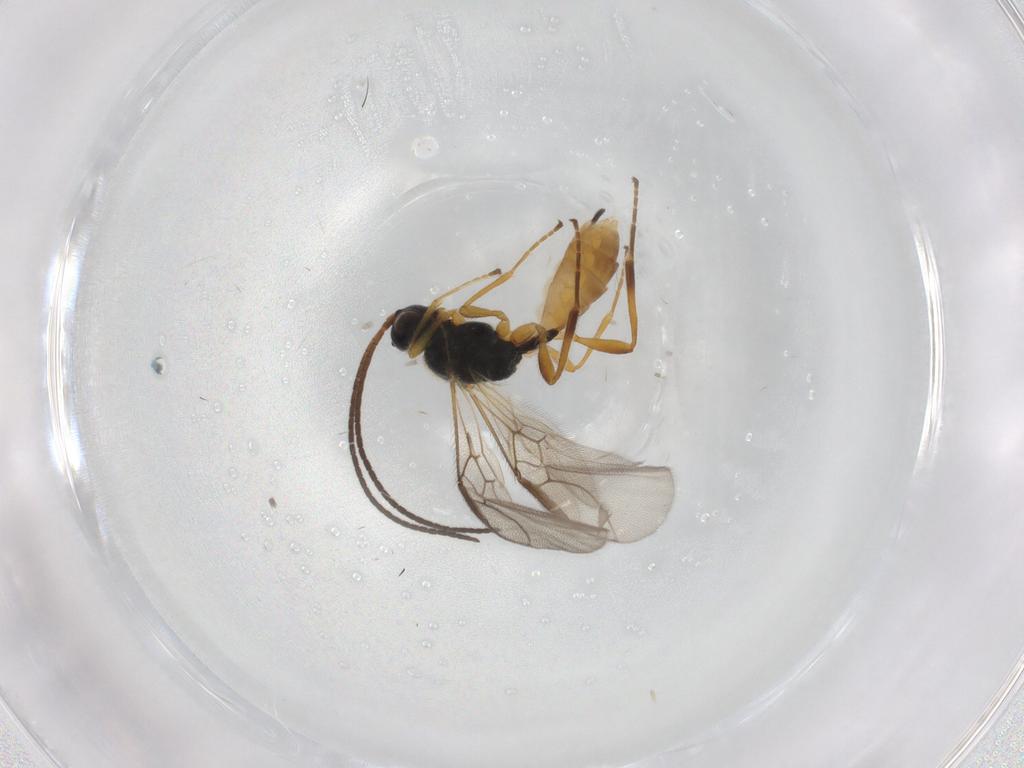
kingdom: Animalia
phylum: Arthropoda
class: Insecta
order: Hymenoptera
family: Braconidae
